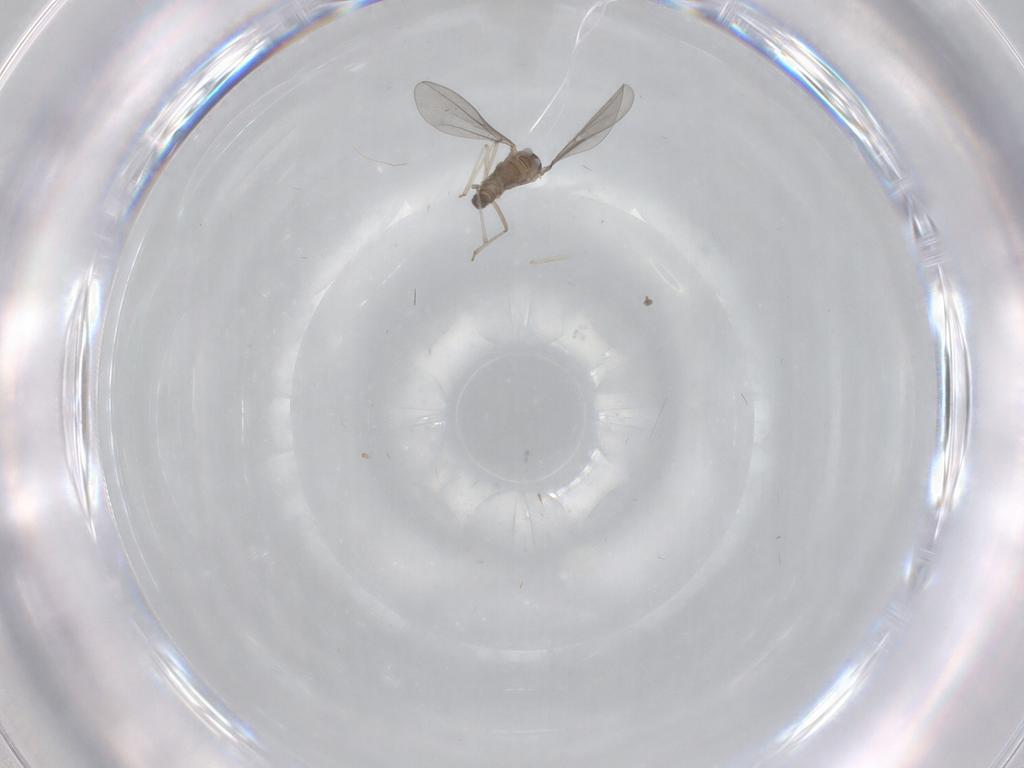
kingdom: Animalia
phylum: Arthropoda
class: Insecta
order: Diptera
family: Cecidomyiidae
